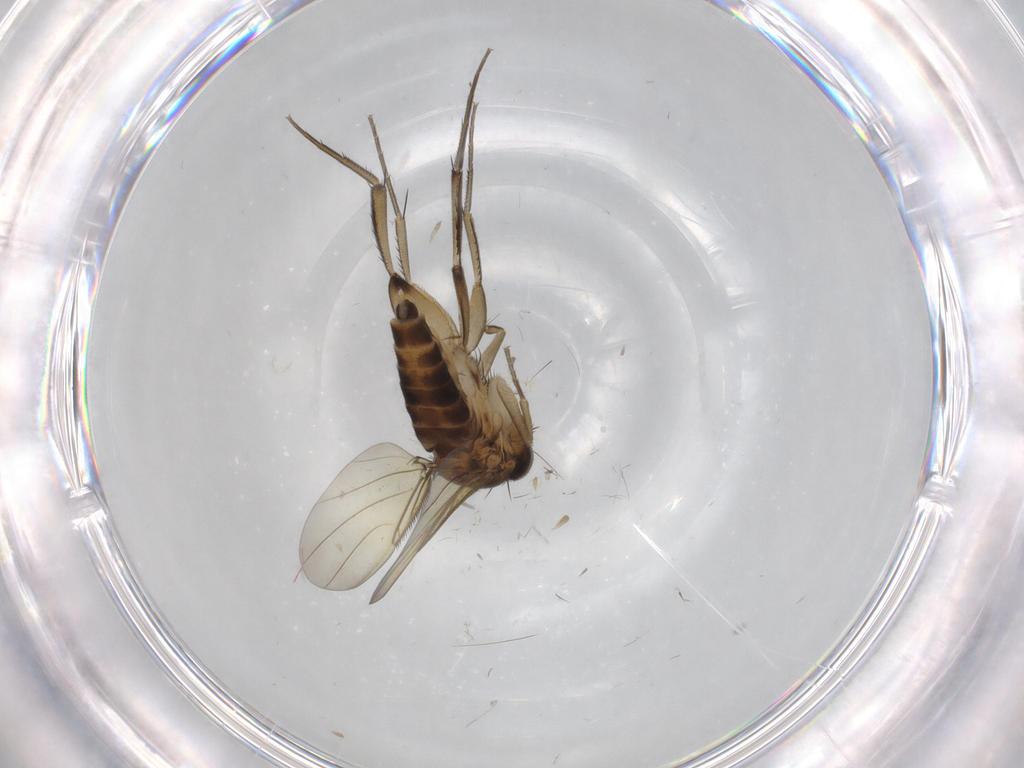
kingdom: Animalia
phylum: Arthropoda
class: Insecta
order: Diptera
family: Phoridae
